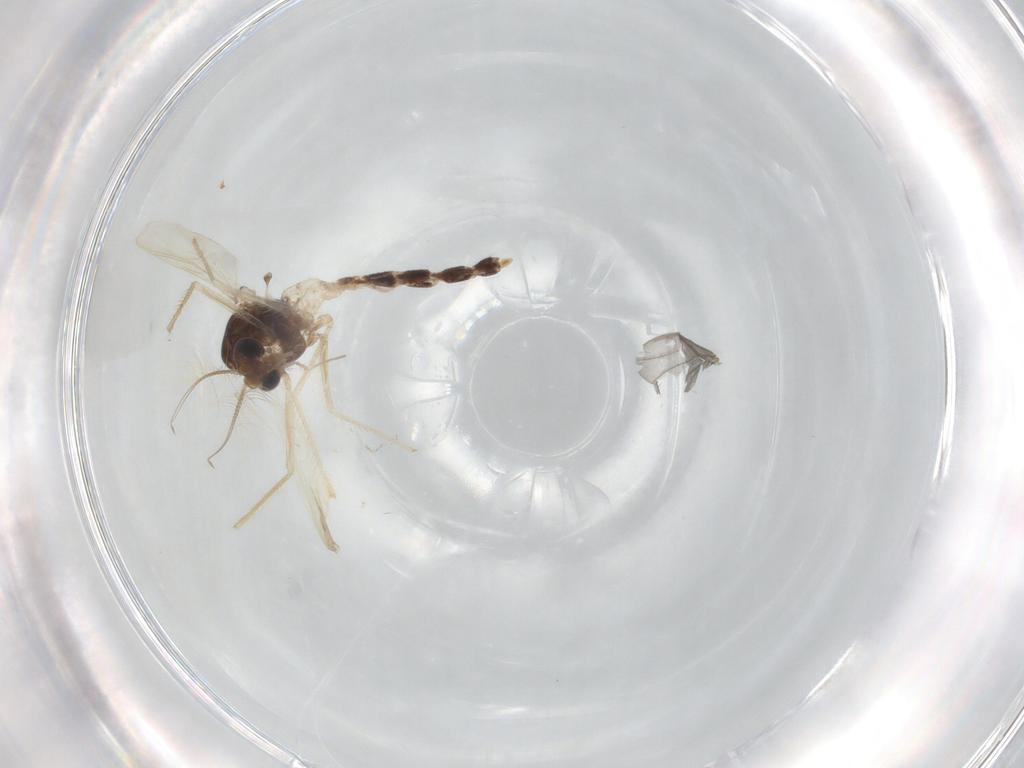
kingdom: Animalia
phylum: Arthropoda
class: Insecta
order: Diptera
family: Chironomidae
